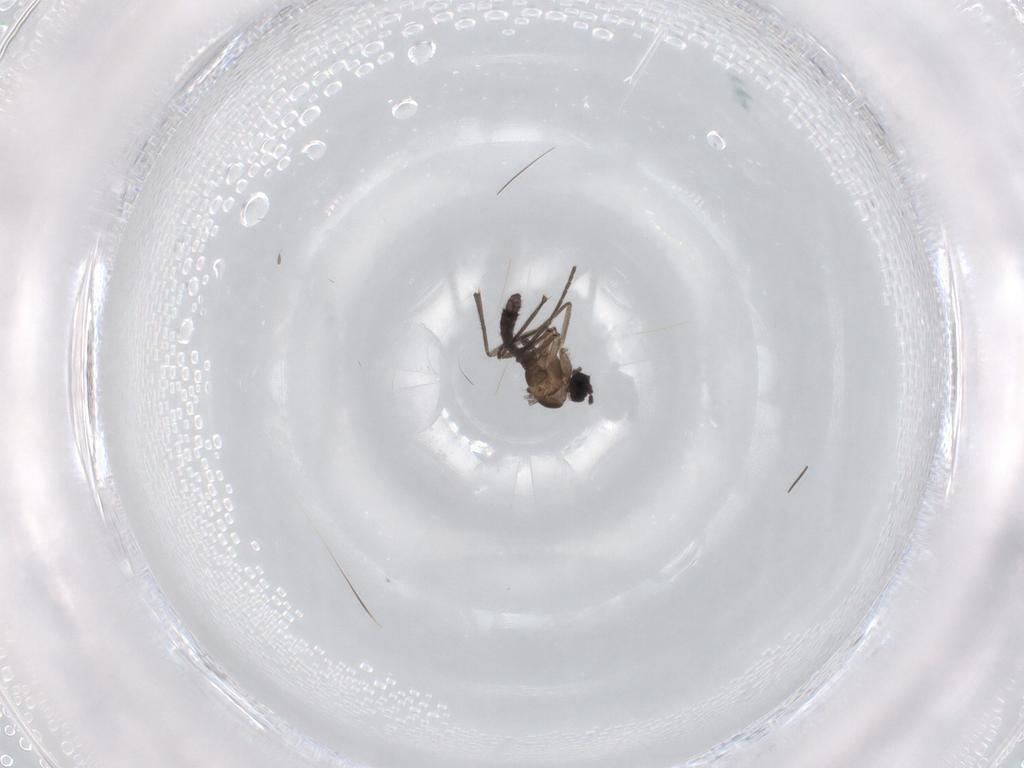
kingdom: Animalia
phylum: Arthropoda
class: Insecta
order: Diptera
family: Sciaridae
